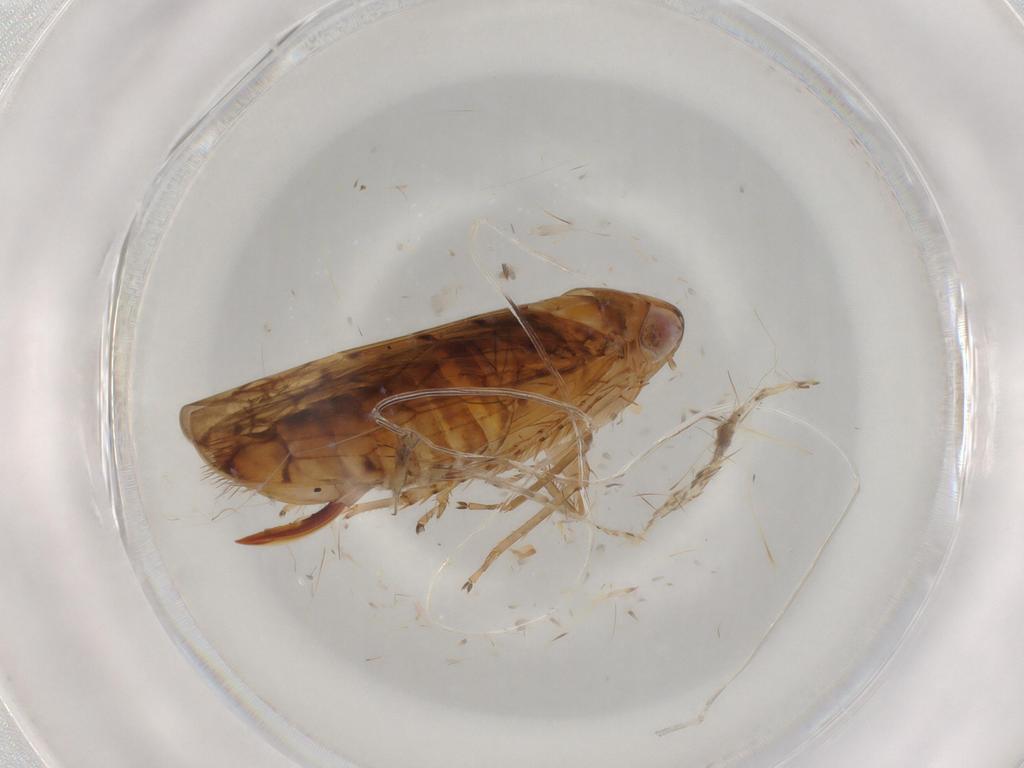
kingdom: Animalia
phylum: Arthropoda
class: Insecta
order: Hemiptera
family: Cicadellidae
